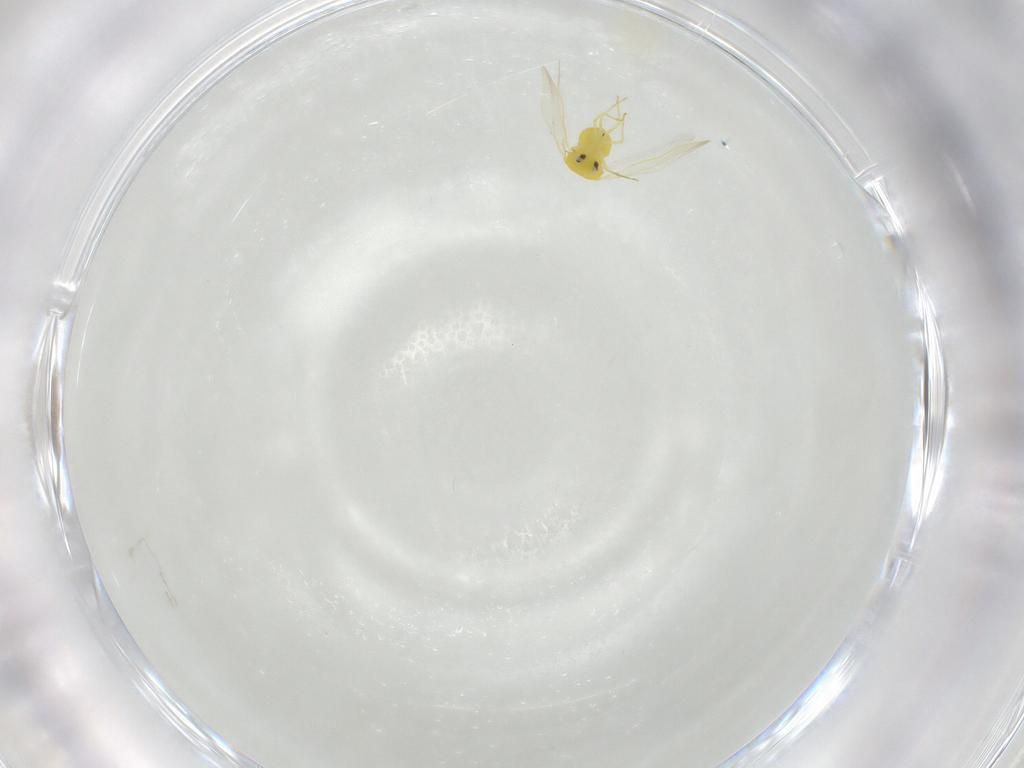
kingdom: Animalia
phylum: Arthropoda
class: Insecta
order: Hemiptera
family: Aleyrodidae
